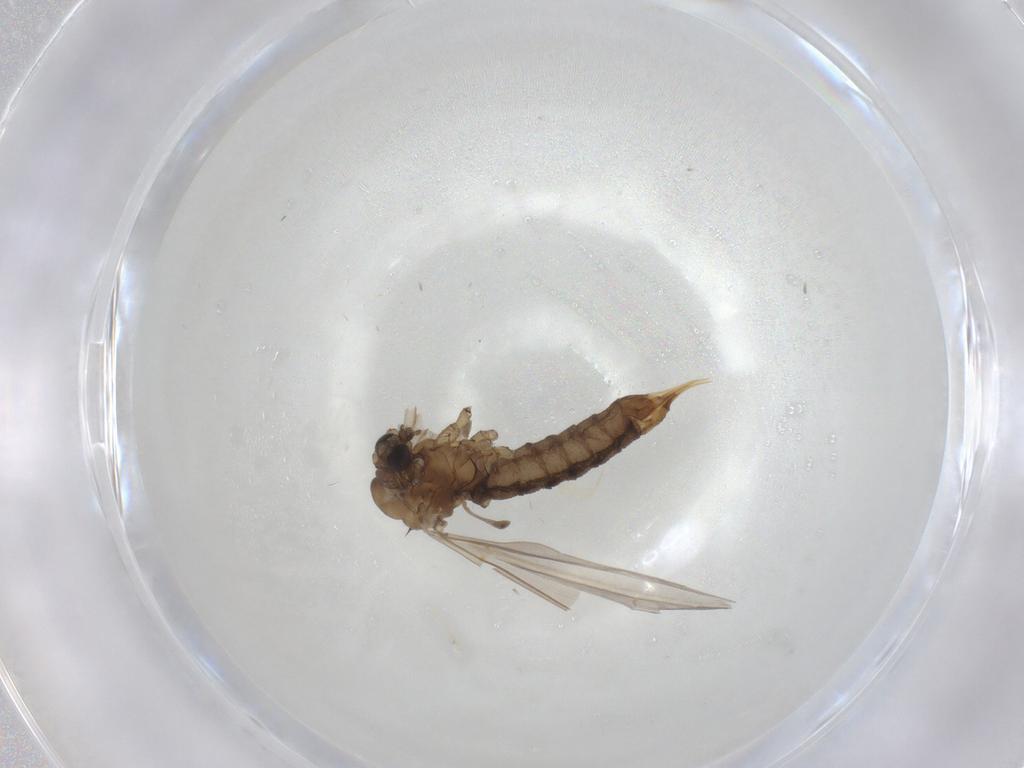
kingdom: Animalia
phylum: Arthropoda
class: Insecta
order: Diptera
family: Limoniidae
